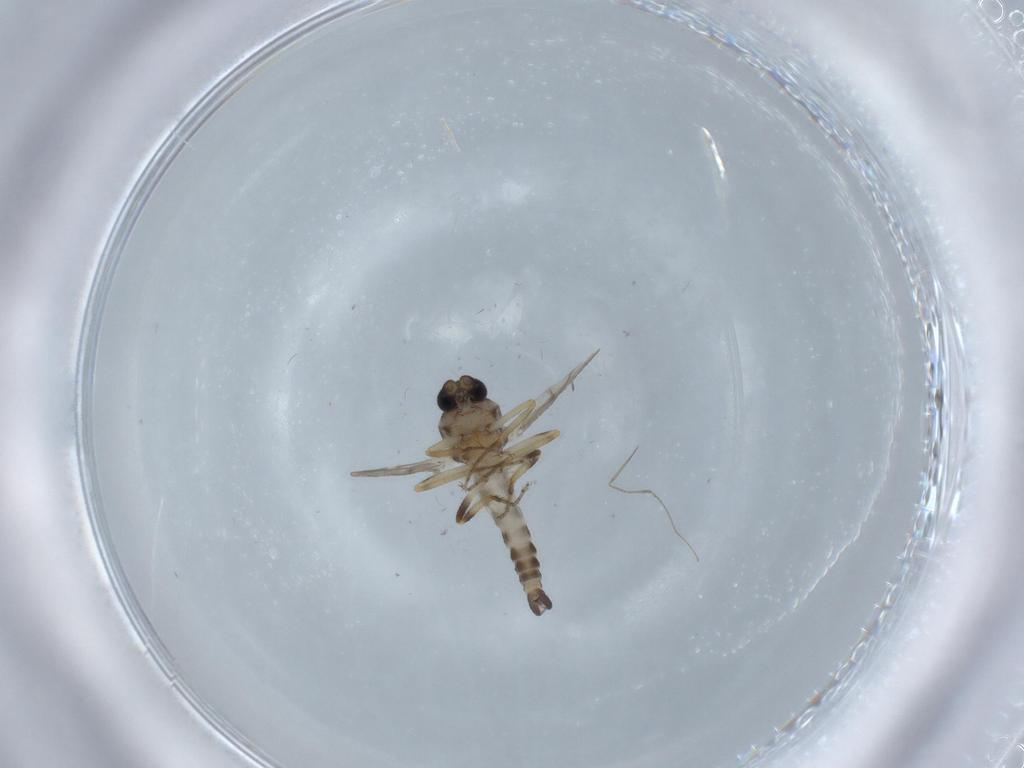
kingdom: Animalia
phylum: Arthropoda
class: Insecta
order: Diptera
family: Ceratopogonidae
